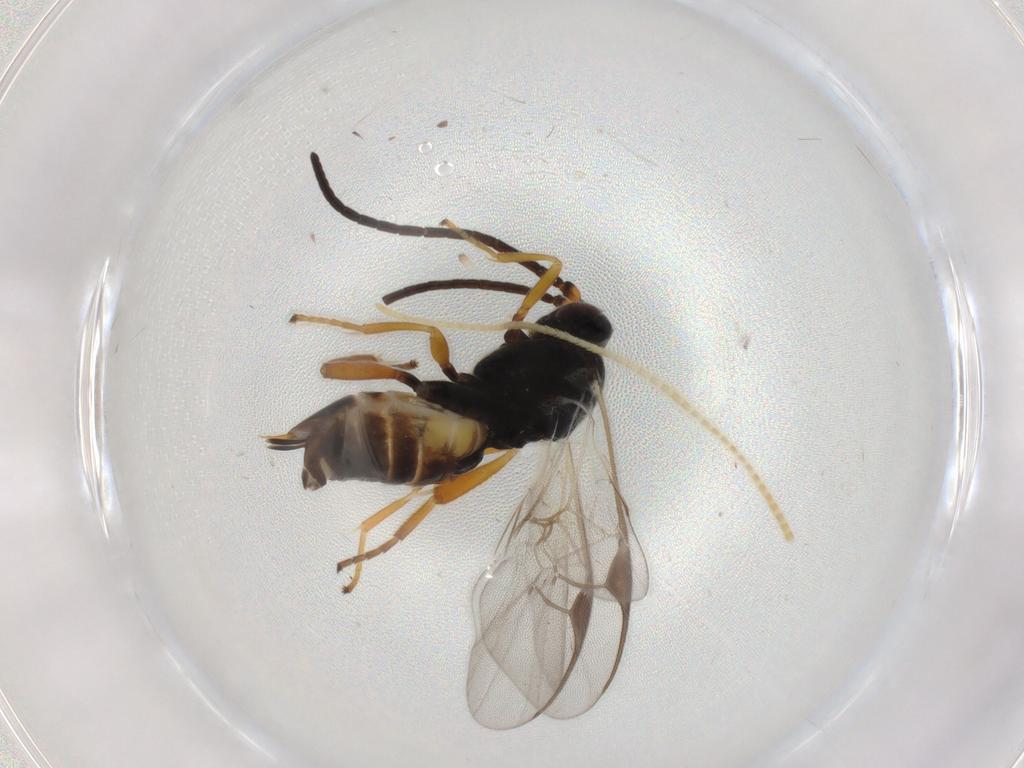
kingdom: Animalia
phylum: Arthropoda
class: Insecta
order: Hymenoptera
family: Braconidae
